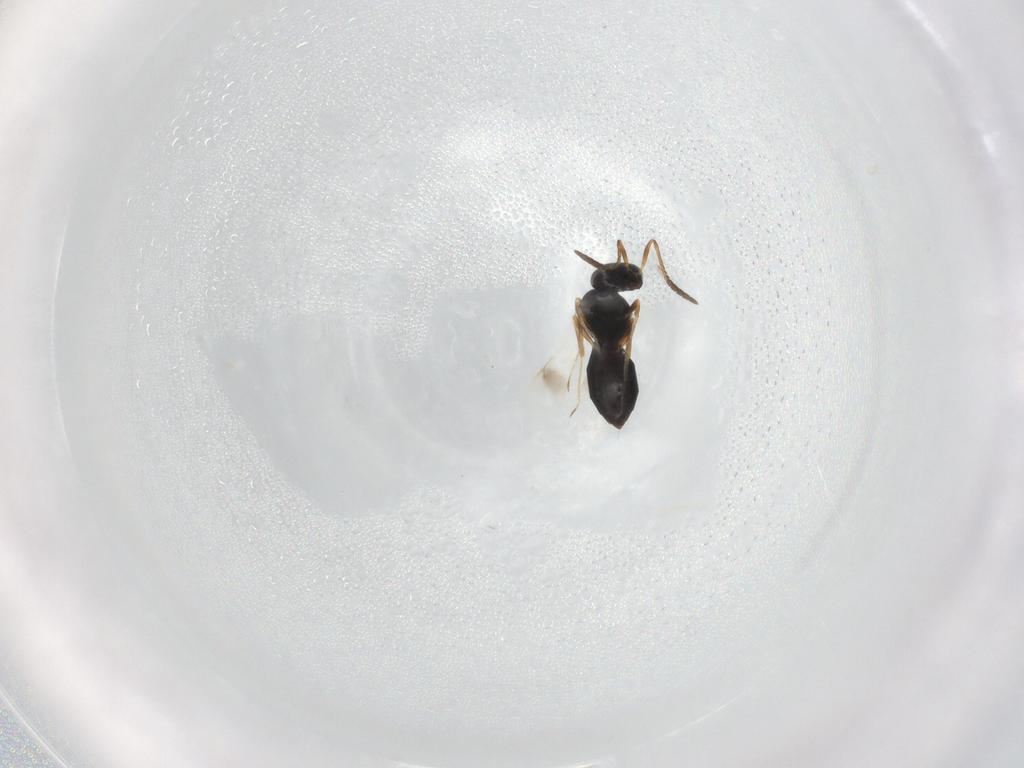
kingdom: Animalia
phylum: Arthropoda
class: Insecta
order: Hymenoptera
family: Scelionidae
